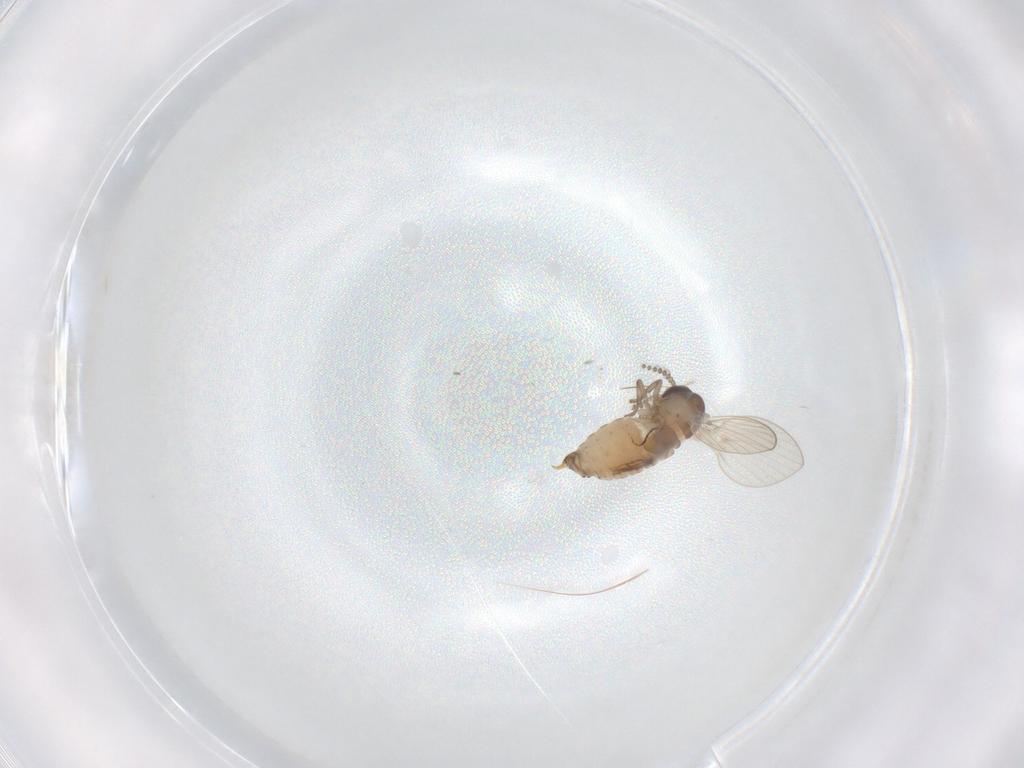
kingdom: Animalia
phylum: Arthropoda
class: Insecta
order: Diptera
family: Psychodidae
